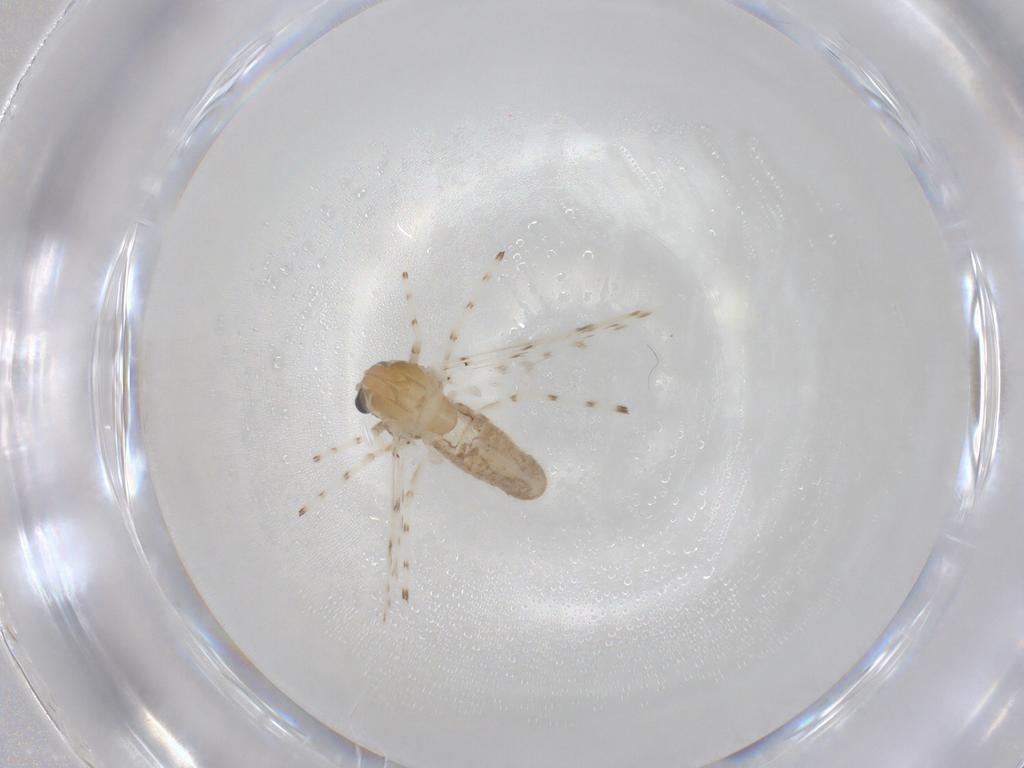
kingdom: Animalia
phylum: Arthropoda
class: Insecta
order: Diptera
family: Chironomidae
